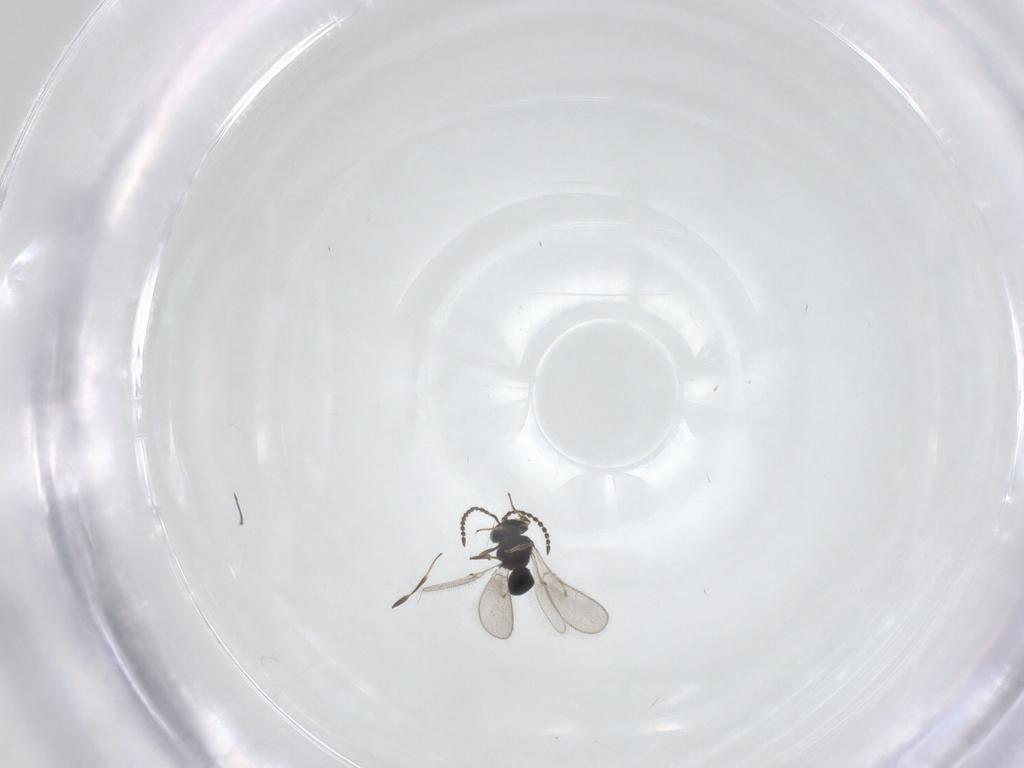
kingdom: Animalia
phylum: Arthropoda
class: Insecta
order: Hymenoptera
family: Scelionidae
